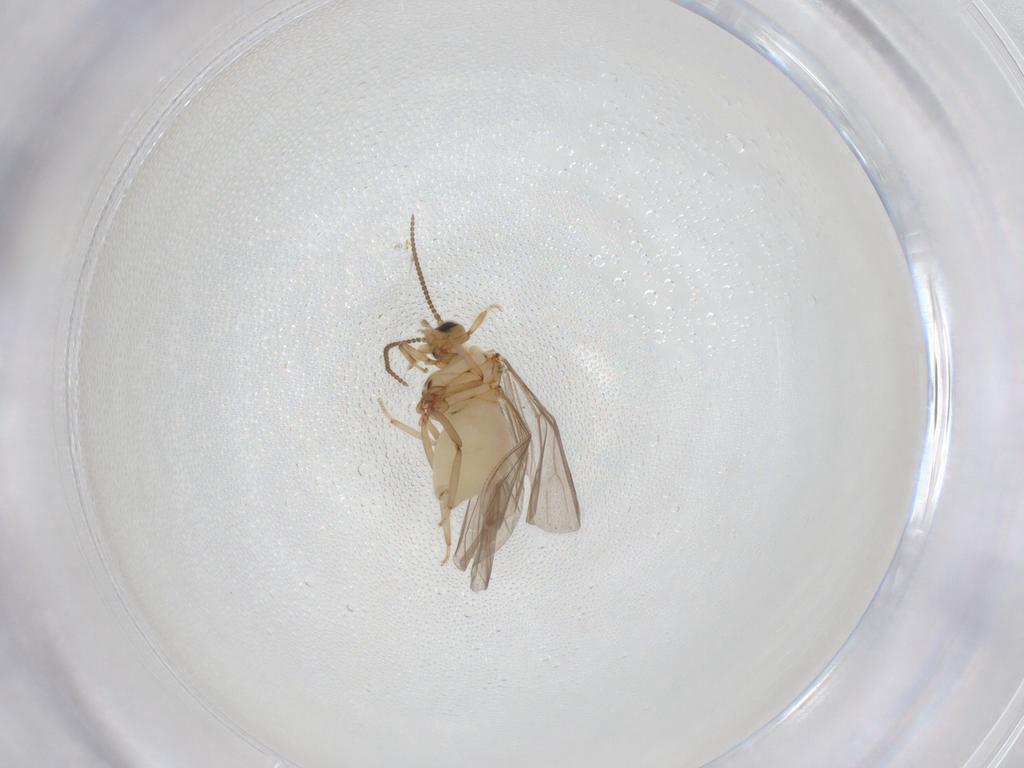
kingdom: Animalia
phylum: Arthropoda
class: Insecta
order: Neuroptera
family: Coniopterygidae
